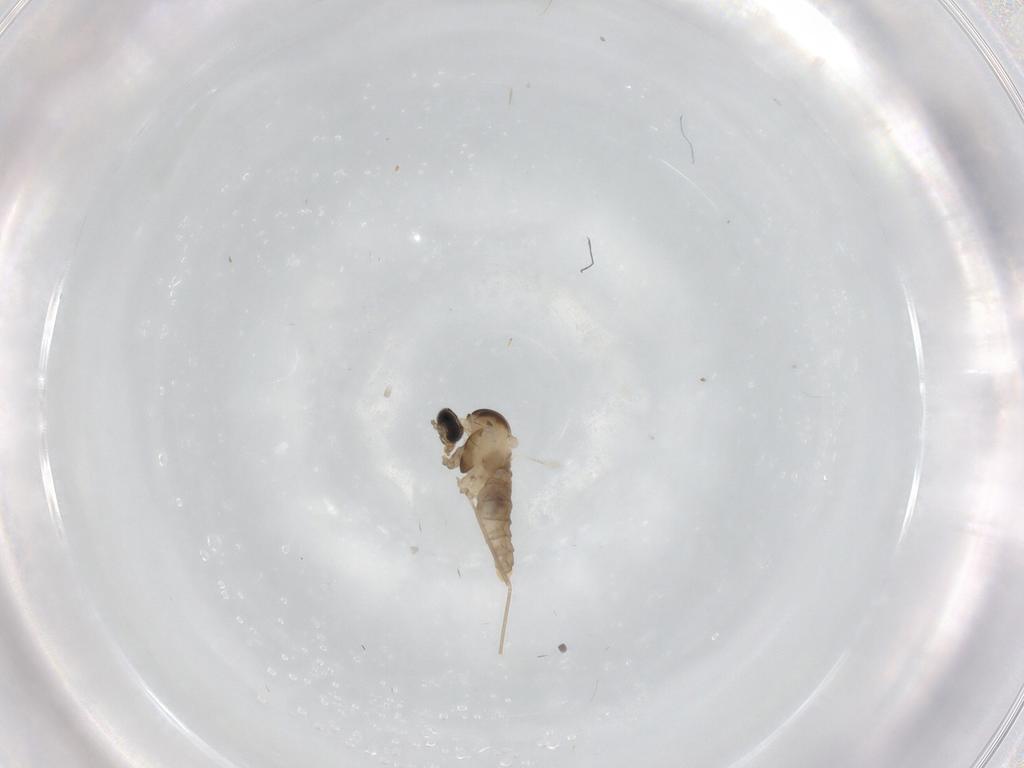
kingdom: Animalia
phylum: Arthropoda
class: Insecta
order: Diptera
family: Cecidomyiidae
